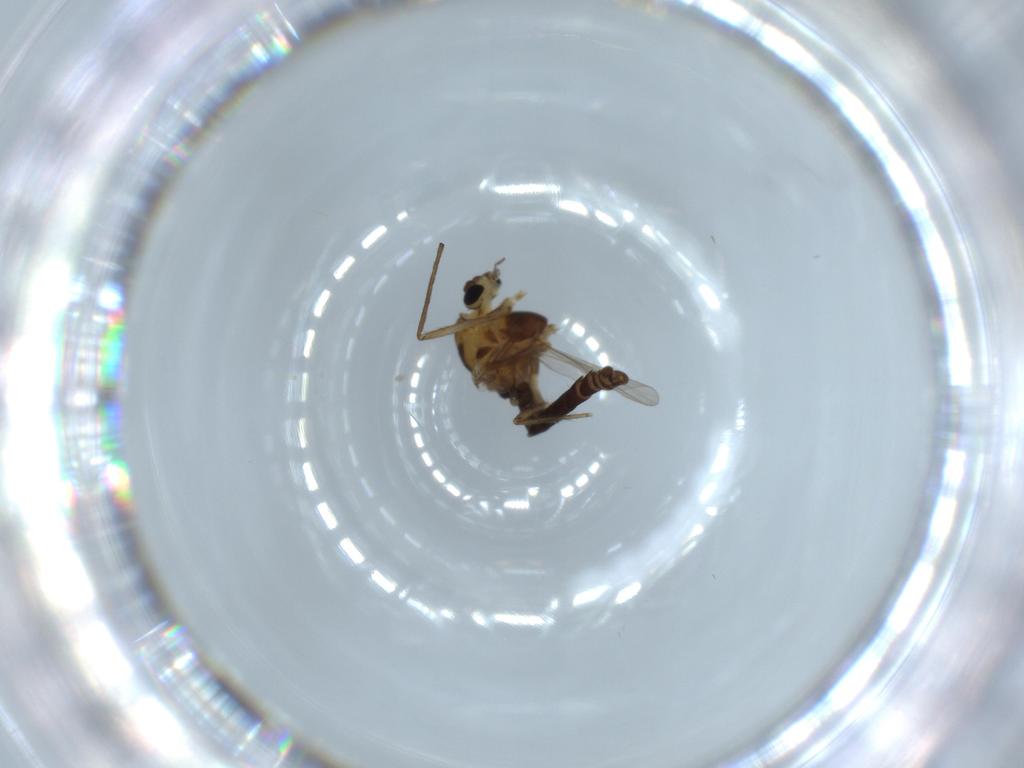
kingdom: Animalia
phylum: Arthropoda
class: Insecta
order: Diptera
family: Chironomidae
